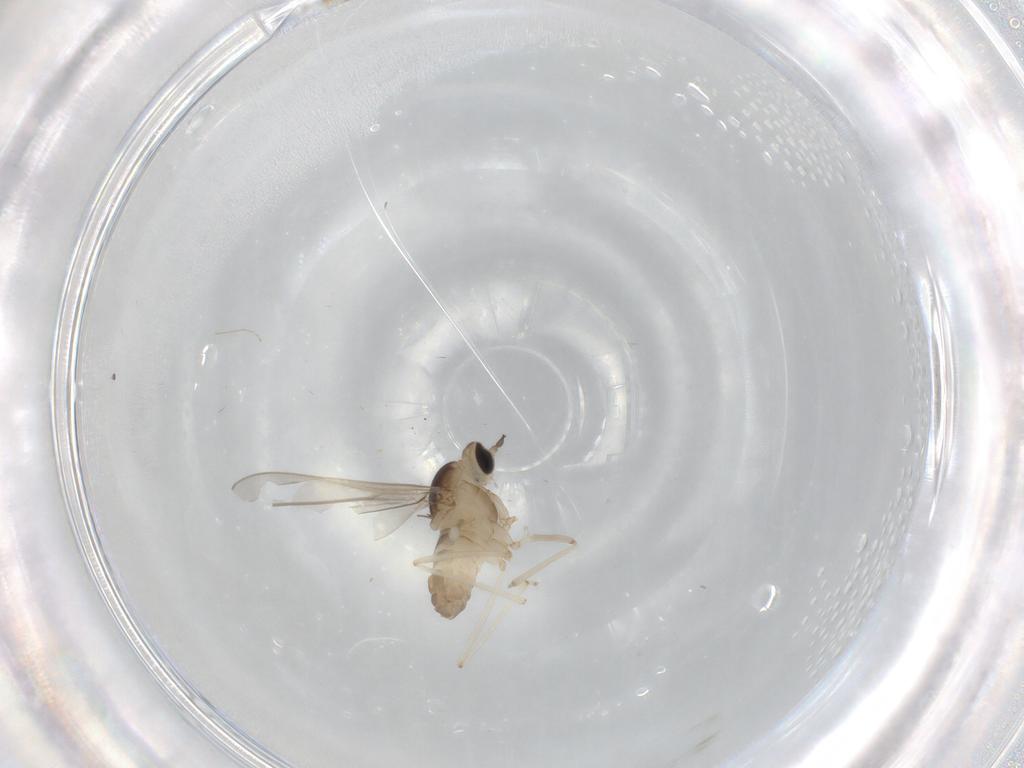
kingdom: Animalia
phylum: Arthropoda
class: Insecta
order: Diptera
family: Cecidomyiidae
